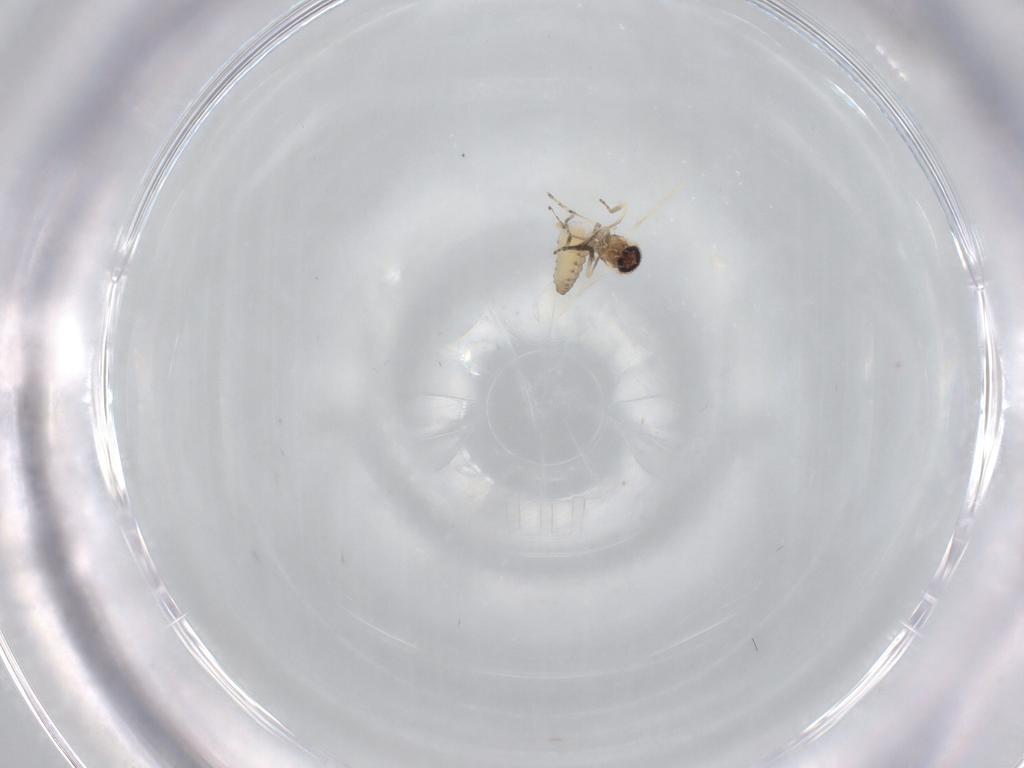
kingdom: Animalia
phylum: Arthropoda
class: Insecta
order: Diptera
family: Ceratopogonidae
